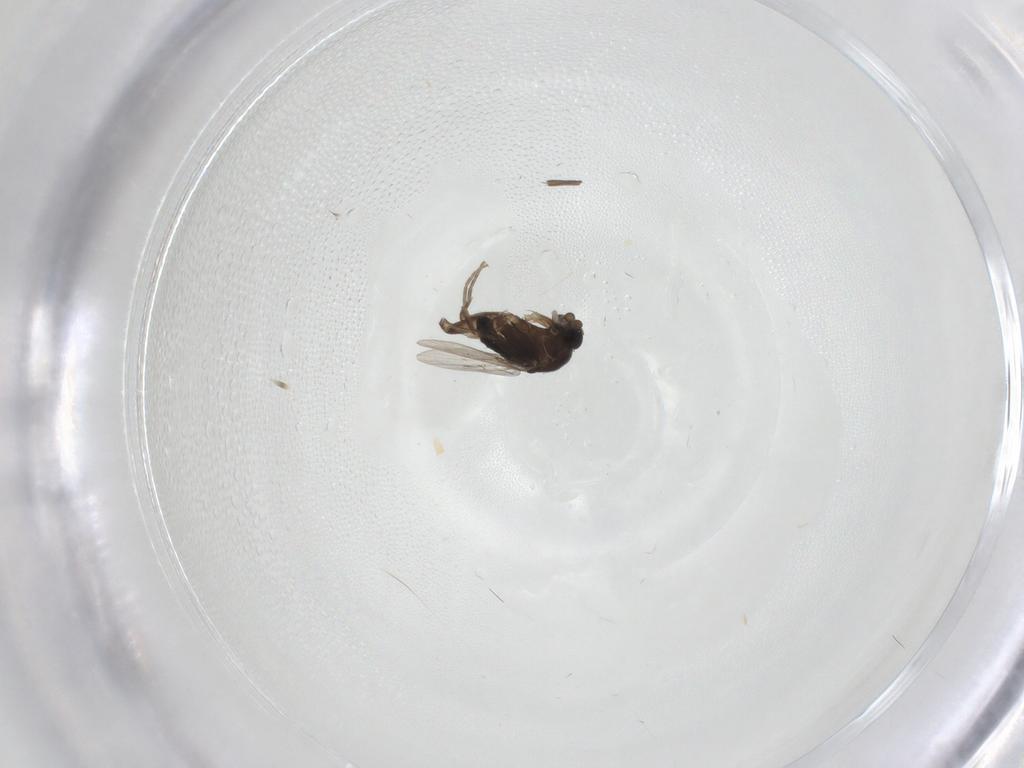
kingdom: Animalia
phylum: Arthropoda
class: Insecta
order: Diptera
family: Phoridae
